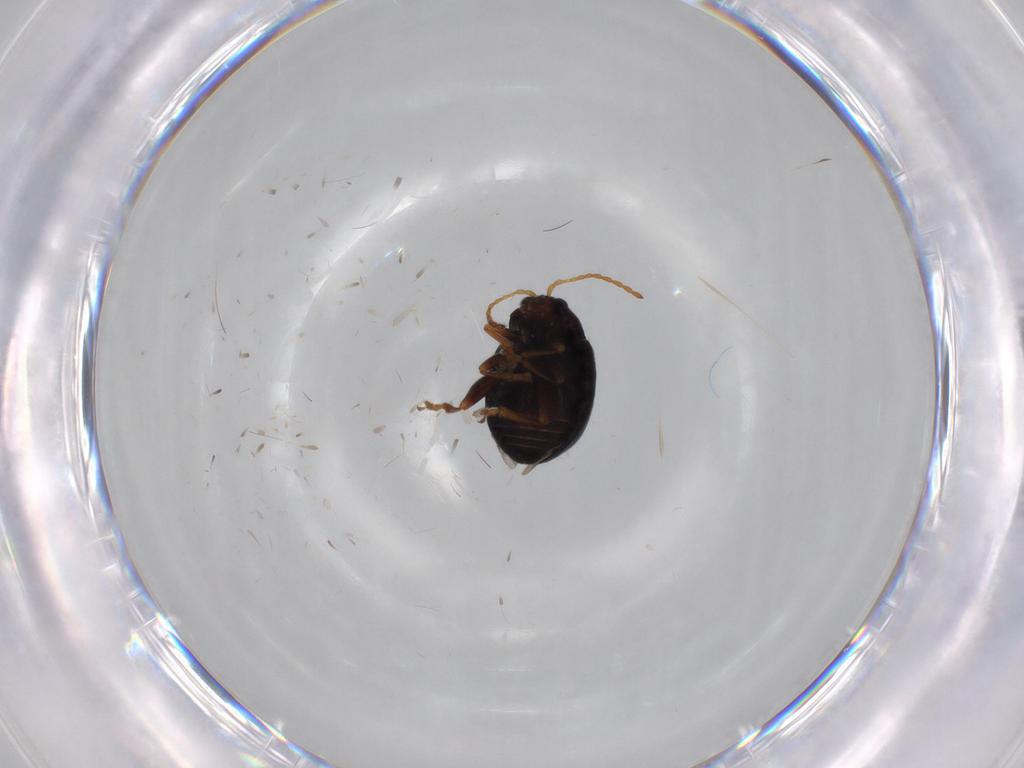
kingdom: Animalia
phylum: Arthropoda
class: Insecta
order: Coleoptera
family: Chrysomelidae
